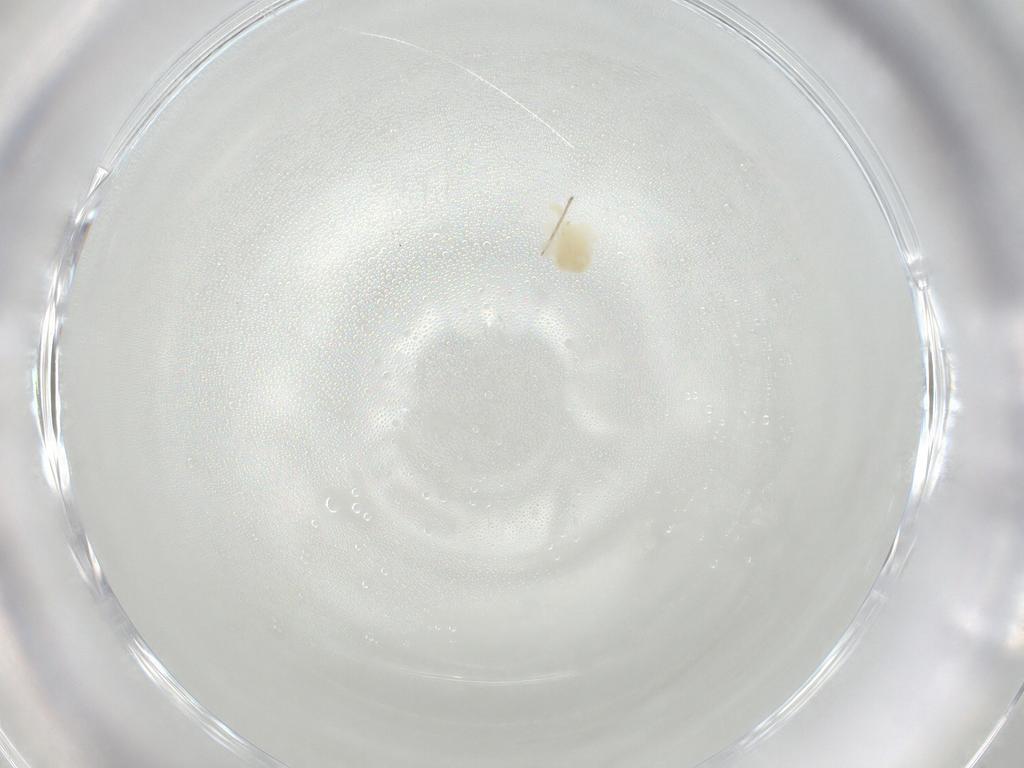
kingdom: Animalia
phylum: Arthropoda
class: Arachnida
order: Trombidiformes
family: Anystidae
